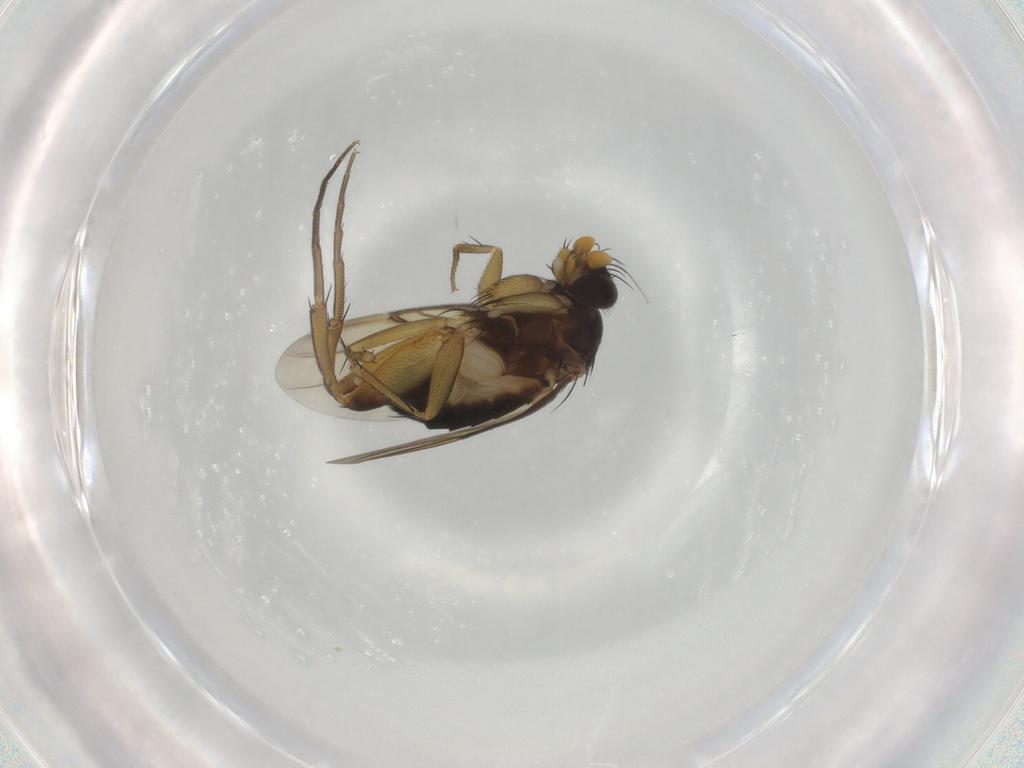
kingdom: Animalia
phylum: Arthropoda
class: Insecta
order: Diptera
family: Phoridae
